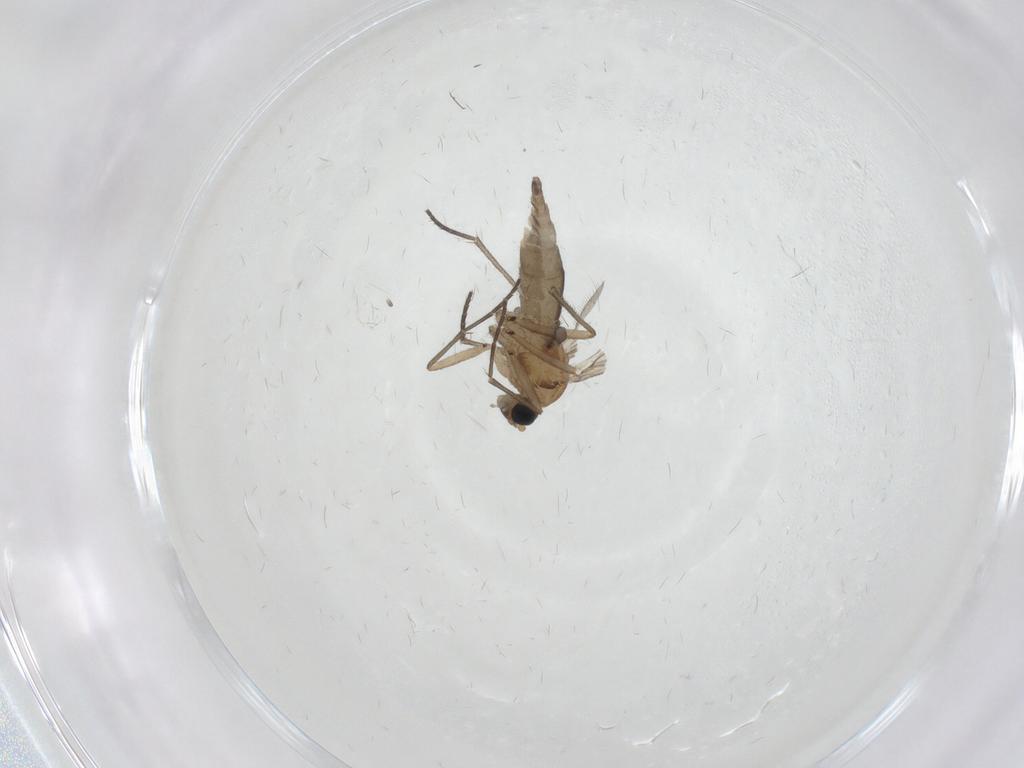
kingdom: Animalia
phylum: Arthropoda
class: Insecta
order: Diptera
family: Sciaridae
